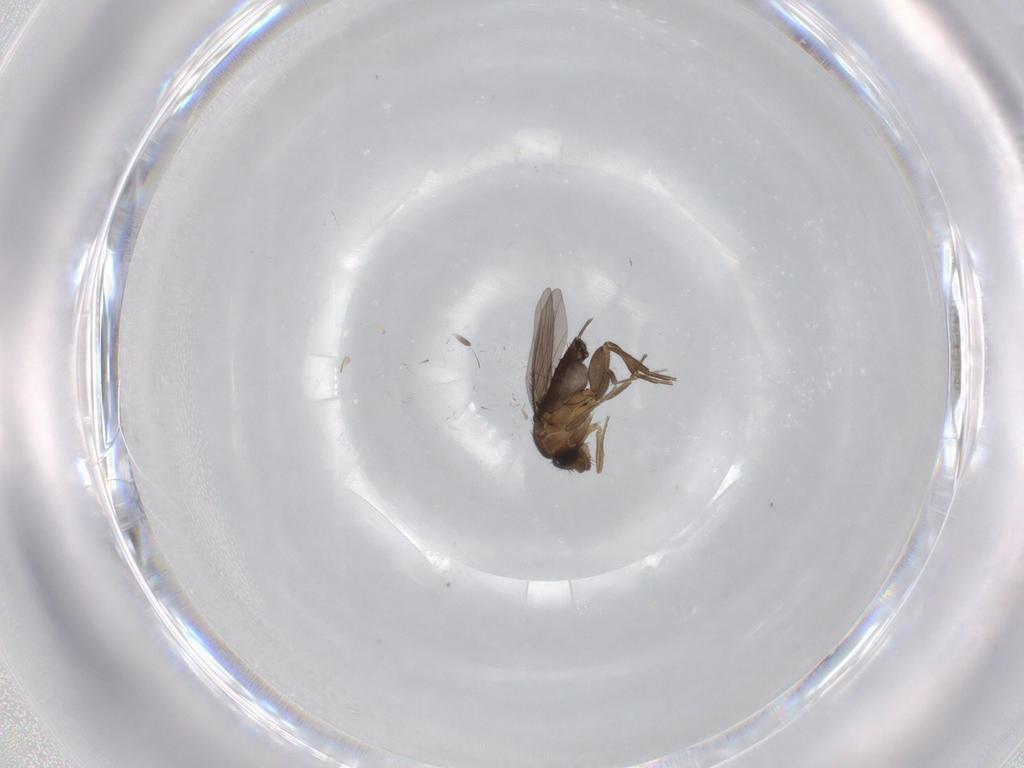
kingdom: Animalia
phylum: Arthropoda
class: Insecta
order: Diptera
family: Phoridae
